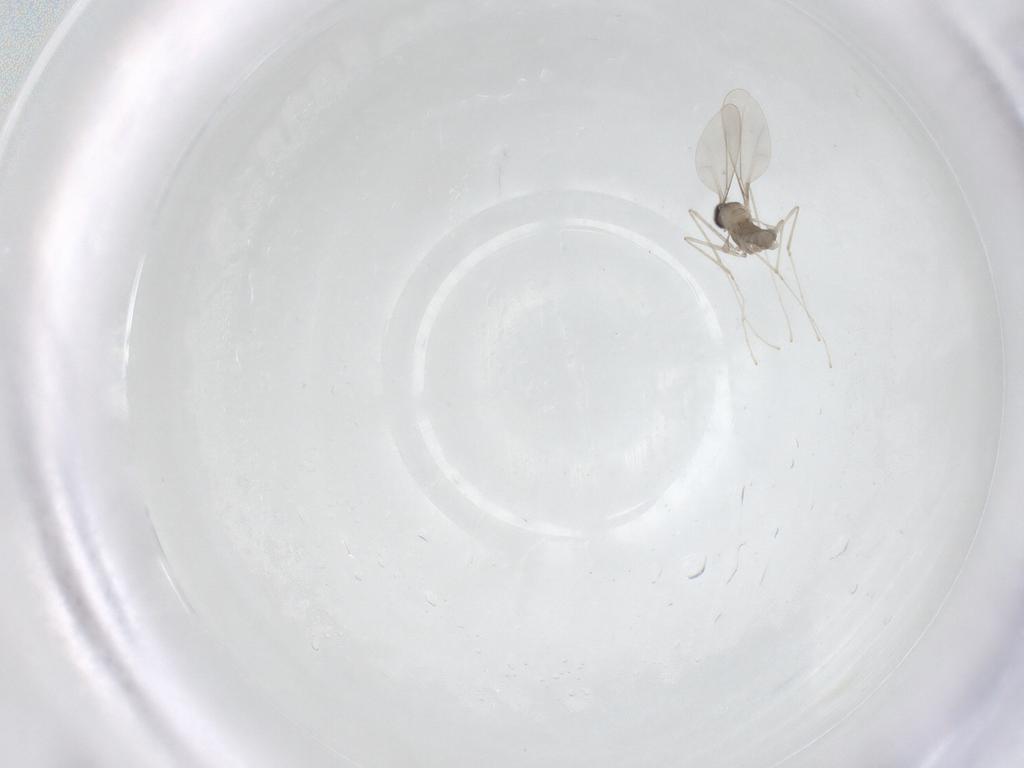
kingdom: Animalia
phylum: Arthropoda
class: Insecta
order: Diptera
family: Cecidomyiidae
